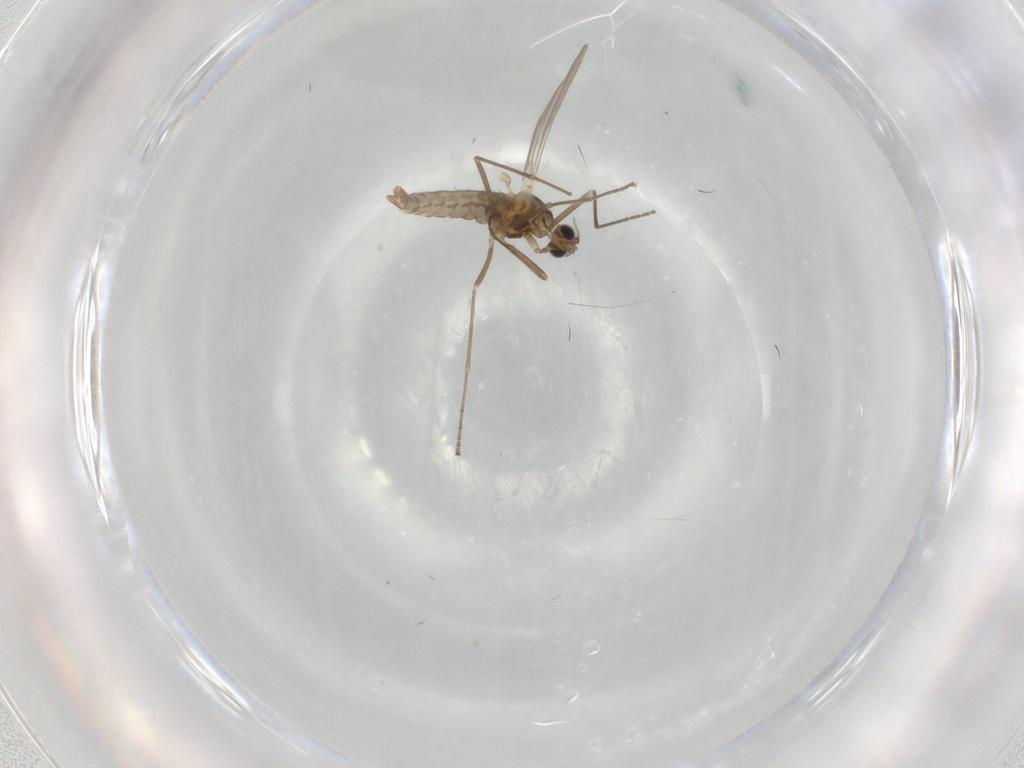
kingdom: Animalia
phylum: Arthropoda
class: Insecta
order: Diptera
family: Cecidomyiidae
